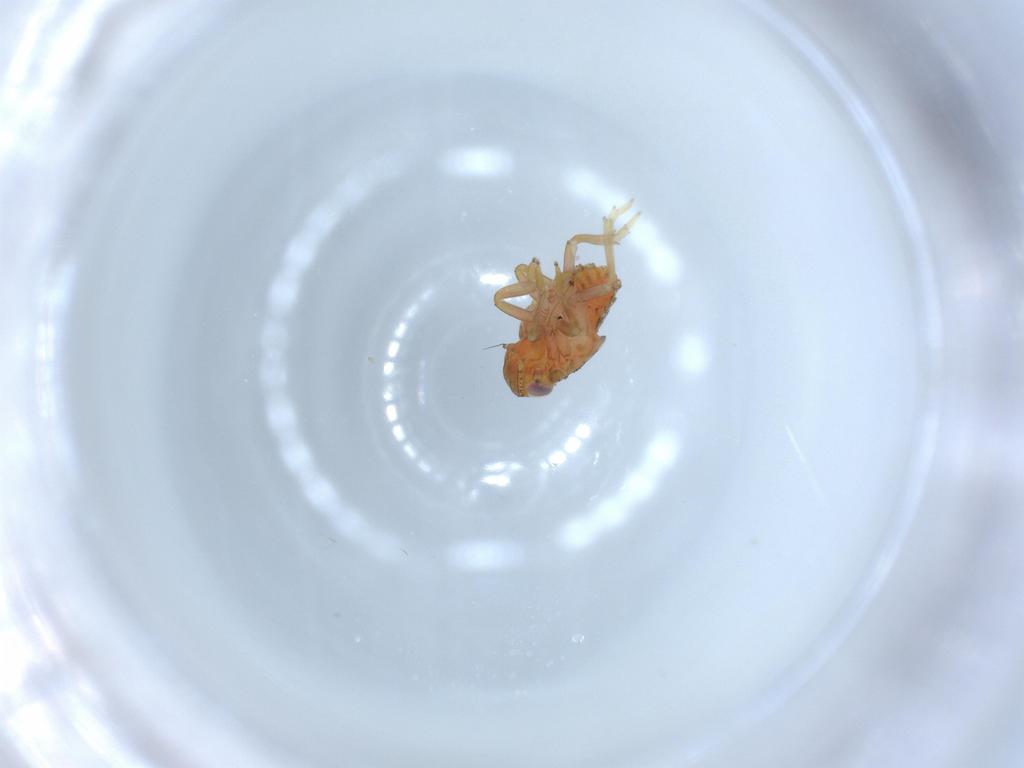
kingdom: Animalia
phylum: Arthropoda
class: Insecta
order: Hemiptera
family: Issidae
